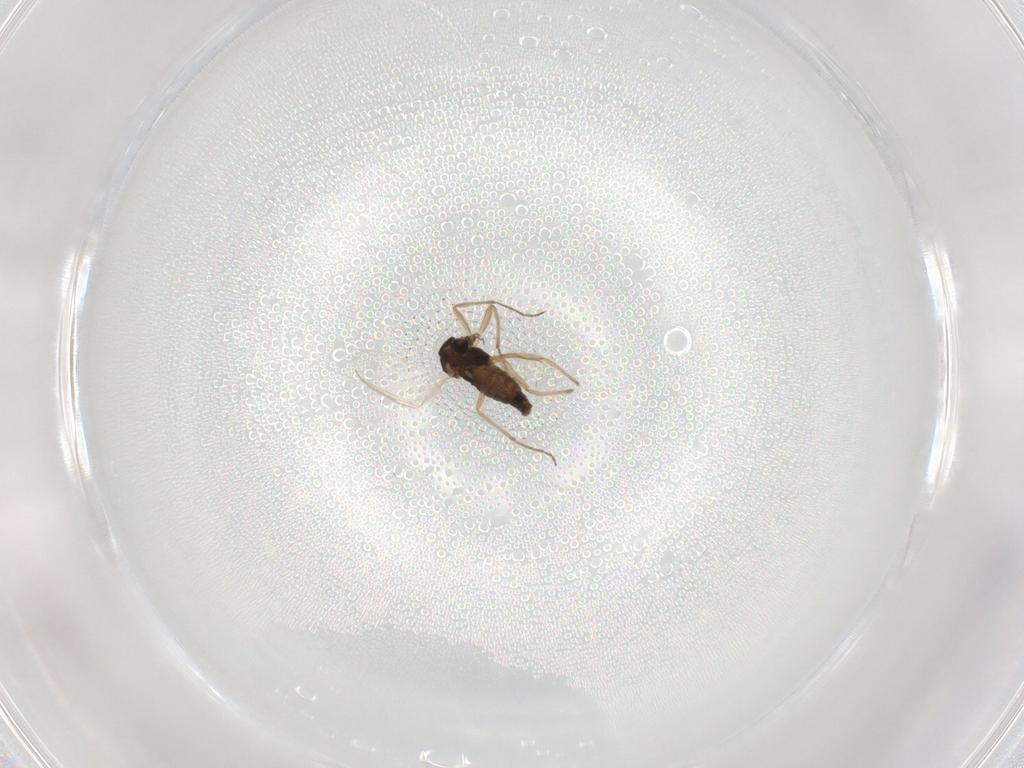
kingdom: Animalia
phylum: Arthropoda
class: Insecta
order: Diptera
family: Chironomidae
